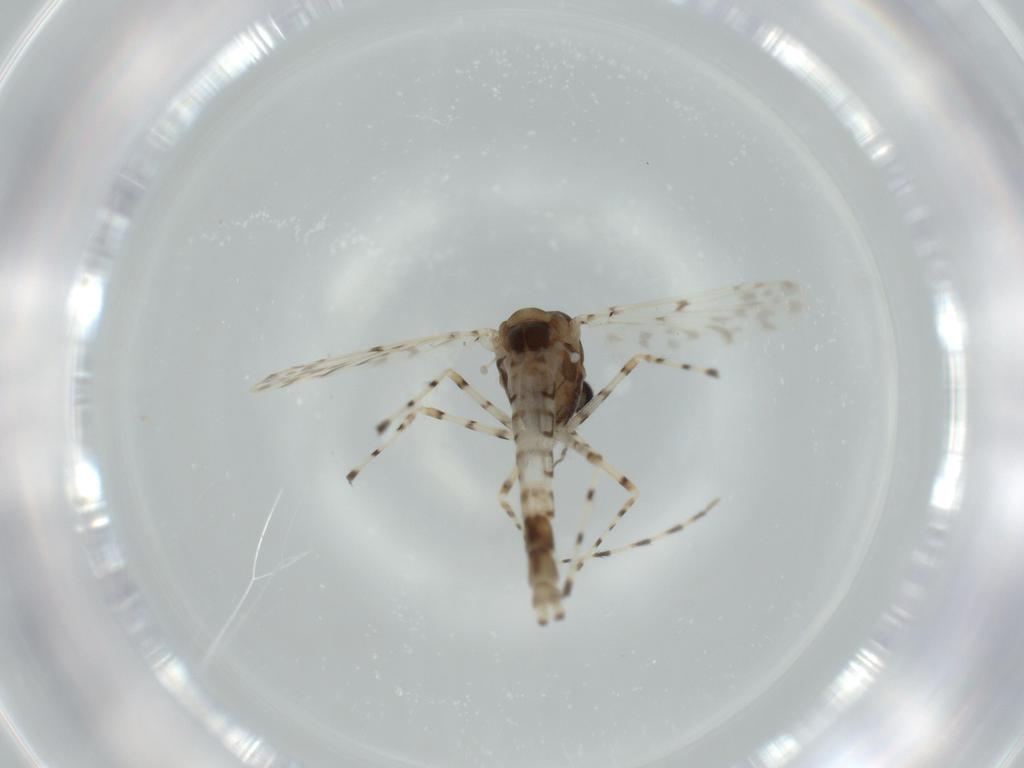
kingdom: Animalia
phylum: Arthropoda
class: Insecta
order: Diptera
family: Chironomidae
